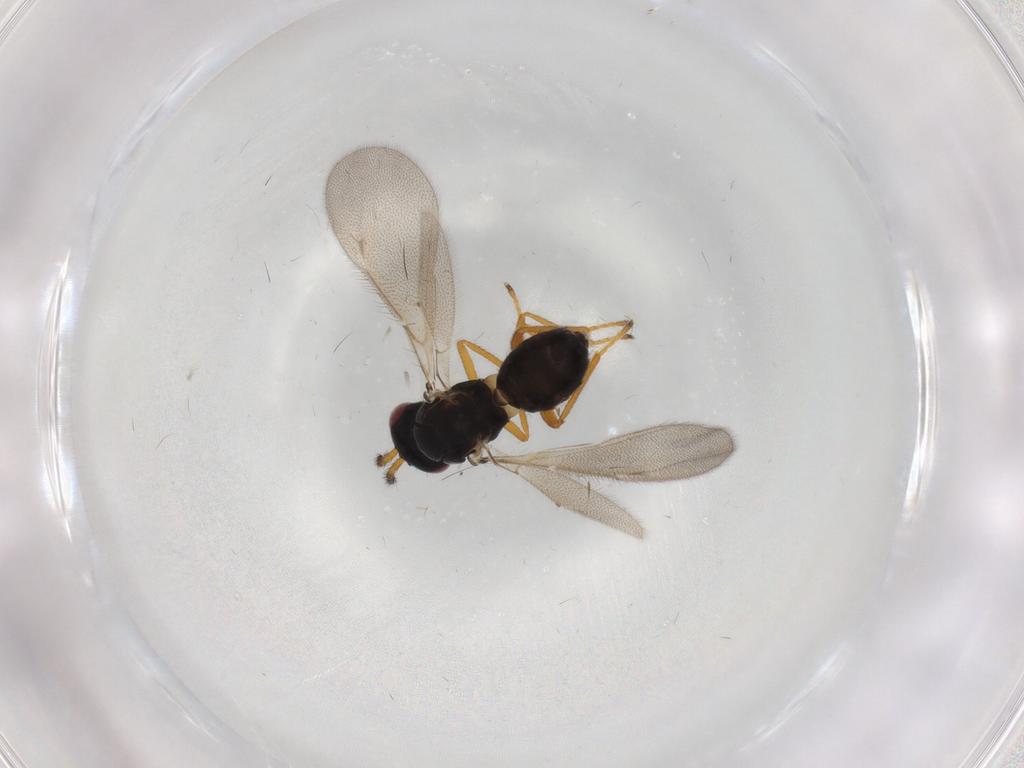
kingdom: Animalia
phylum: Arthropoda
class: Insecta
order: Hymenoptera
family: Eulophidae
